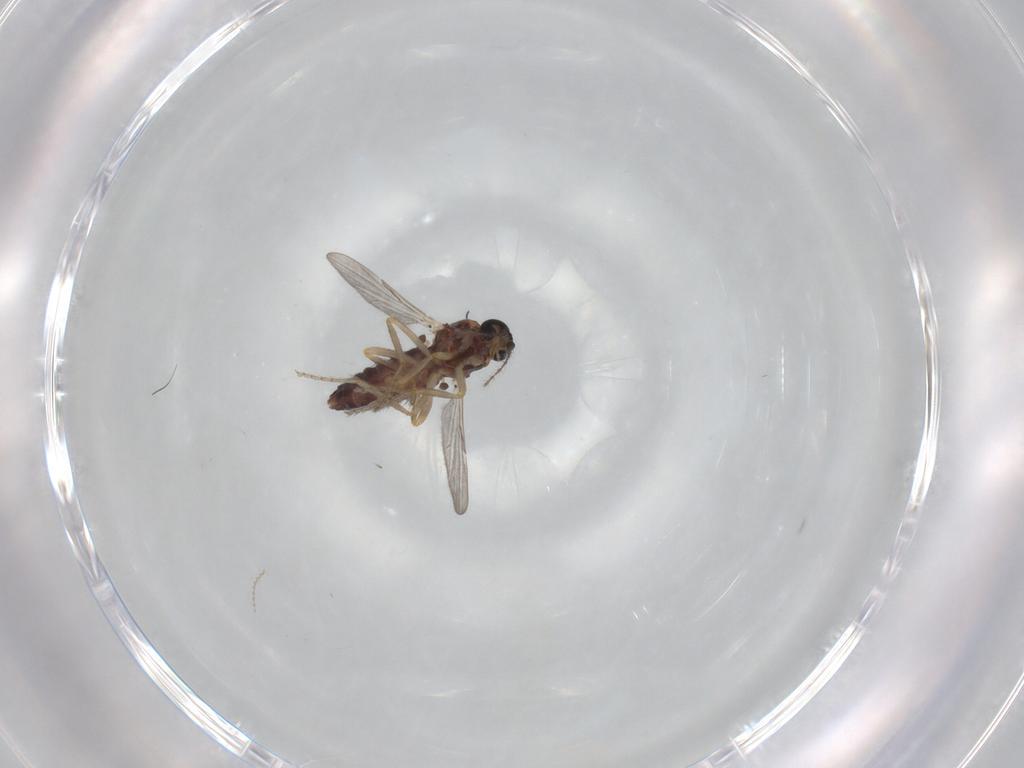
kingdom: Animalia
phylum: Arthropoda
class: Insecta
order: Diptera
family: Ceratopogonidae
